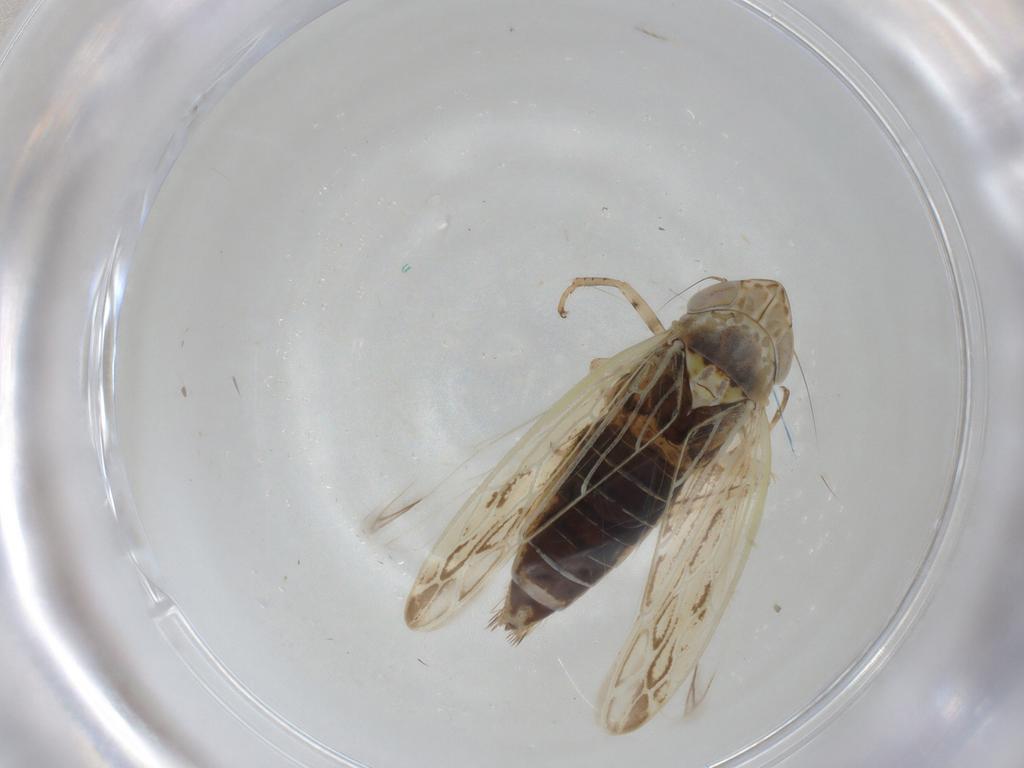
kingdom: Animalia
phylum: Arthropoda
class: Insecta
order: Hemiptera
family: Cicadellidae
